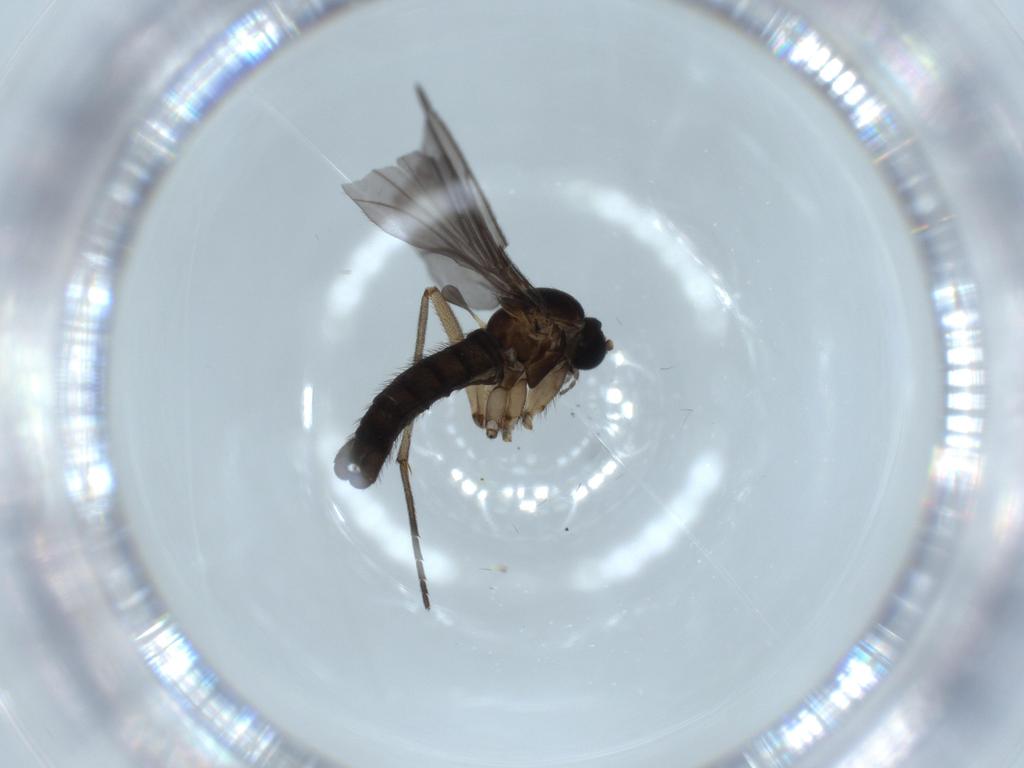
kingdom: Animalia
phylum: Arthropoda
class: Insecta
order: Diptera
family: Sciaridae
